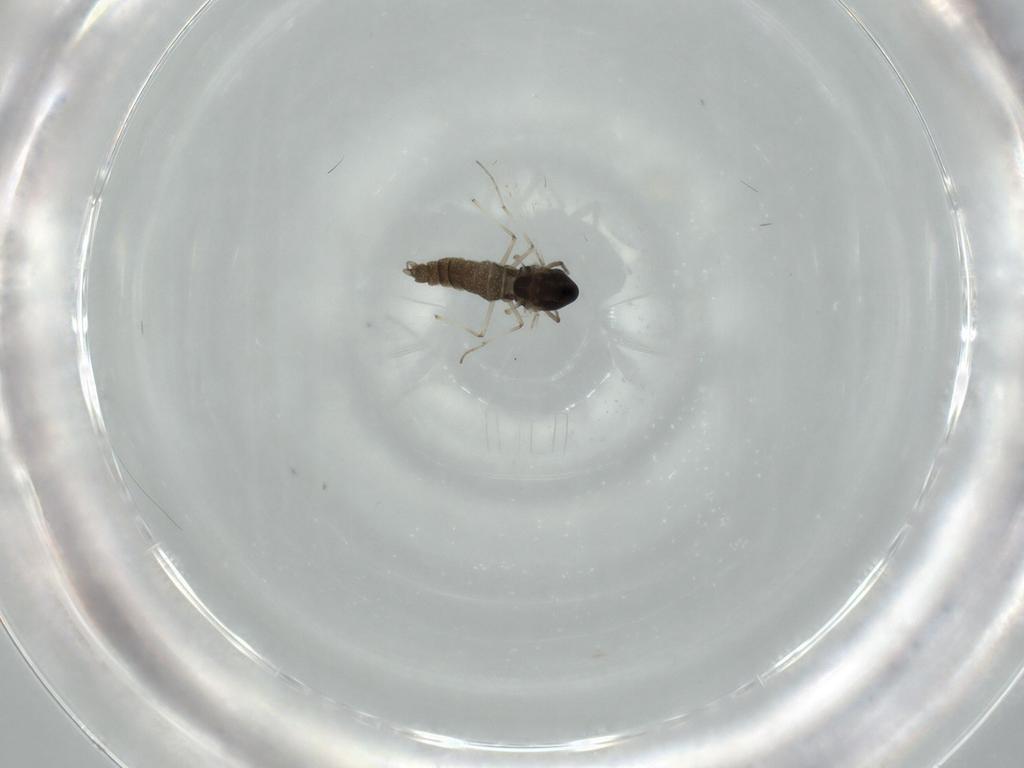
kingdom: Animalia
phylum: Arthropoda
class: Insecta
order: Diptera
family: Chironomidae
